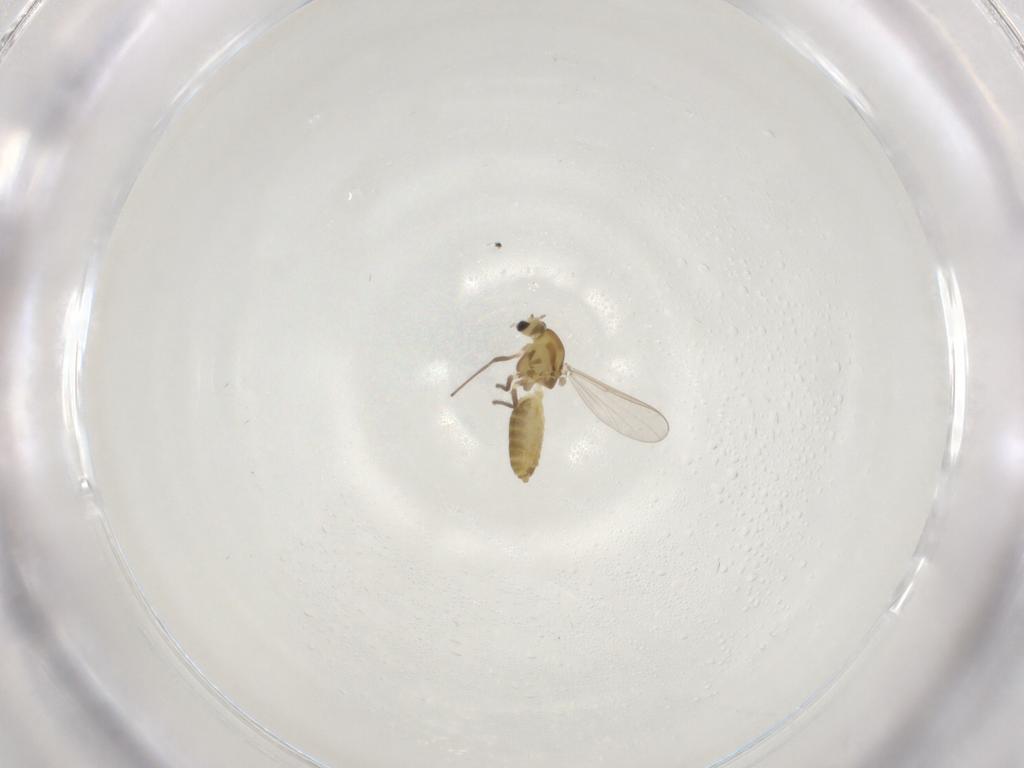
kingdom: Animalia
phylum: Arthropoda
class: Insecta
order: Diptera
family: Chironomidae
